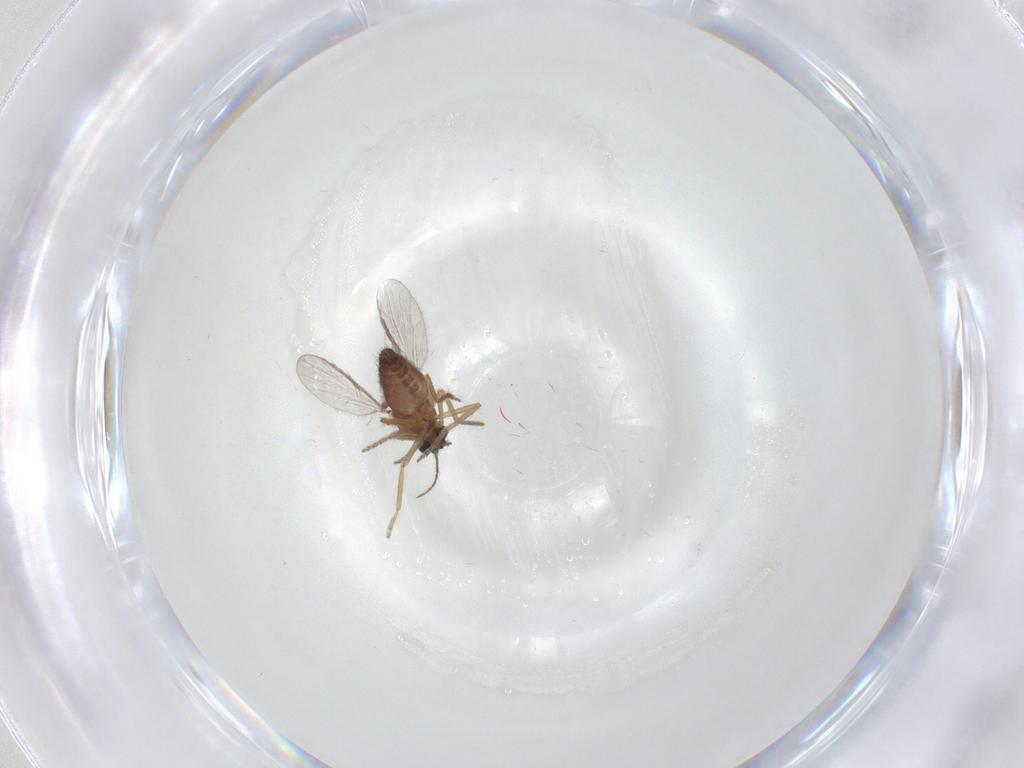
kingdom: Animalia
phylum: Arthropoda
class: Insecta
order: Diptera
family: Ceratopogonidae
